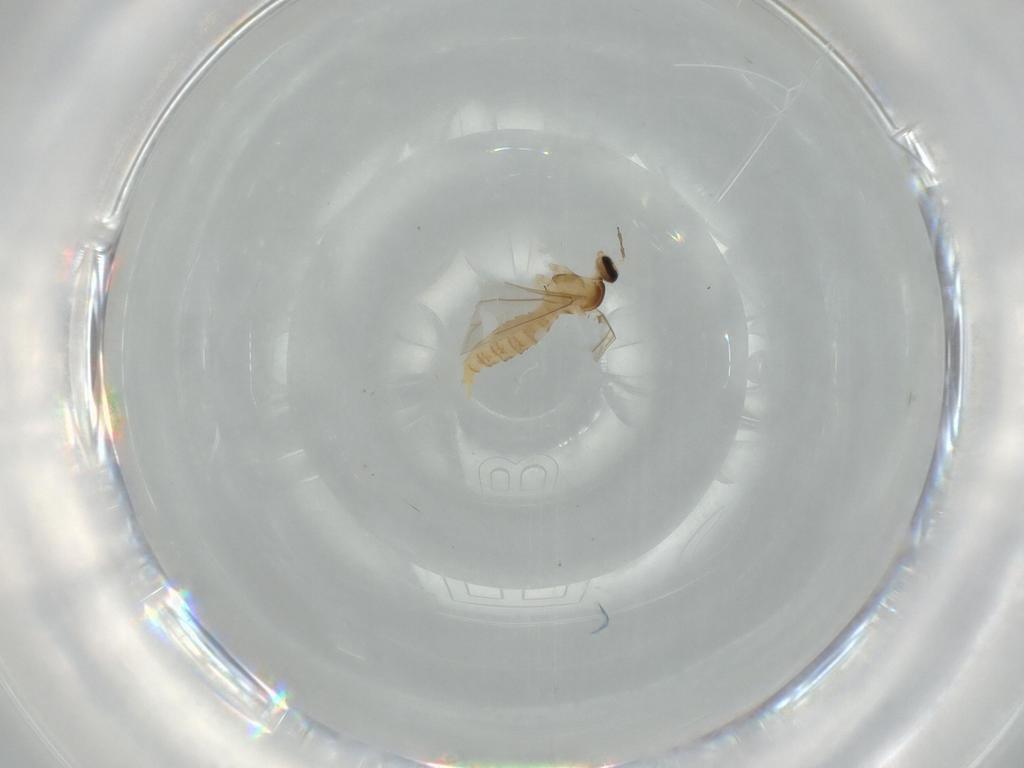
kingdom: Animalia
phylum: Arthropoda
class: Insecta
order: Diptera
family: Cecidomyiidae
